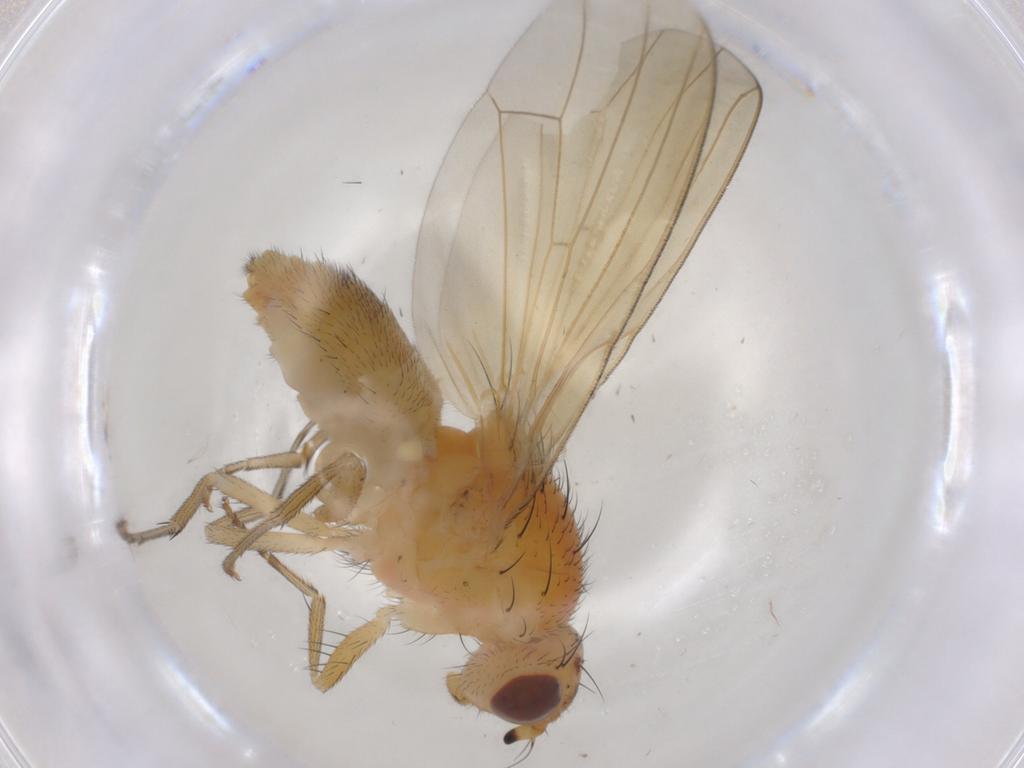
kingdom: Animalia
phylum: Arthropoda
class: Insecta
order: Diptera
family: Lauxaniidae
